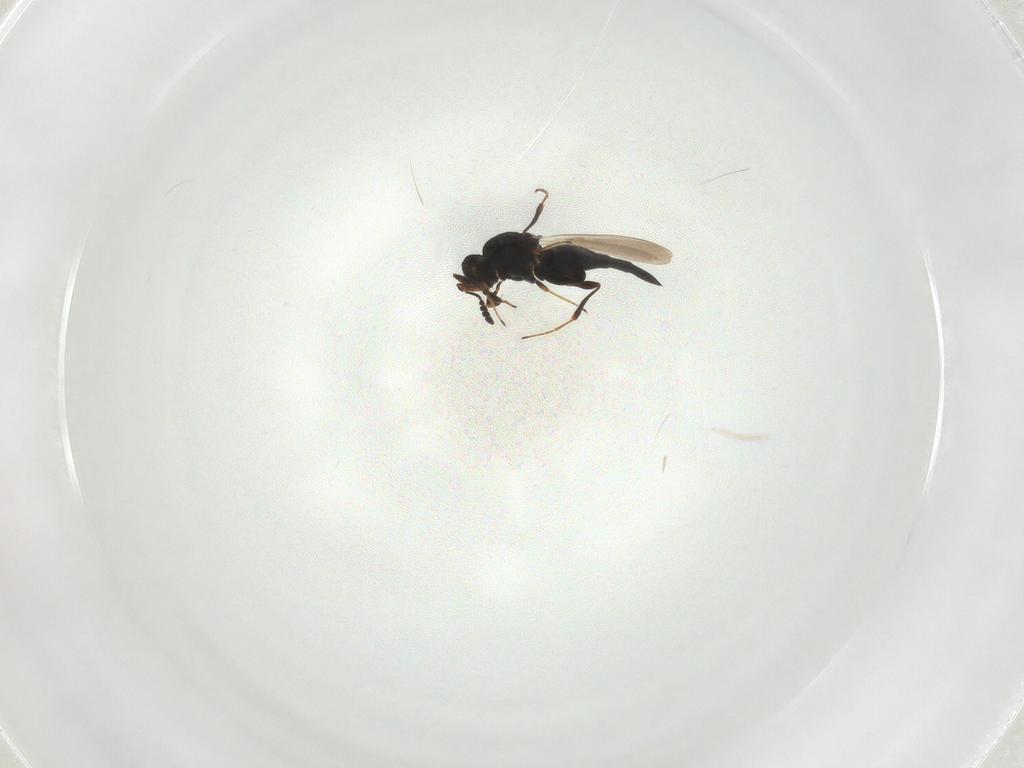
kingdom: Animalia
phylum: Arthropoda
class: Insecta
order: Hymenoptera
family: Platygastridae
